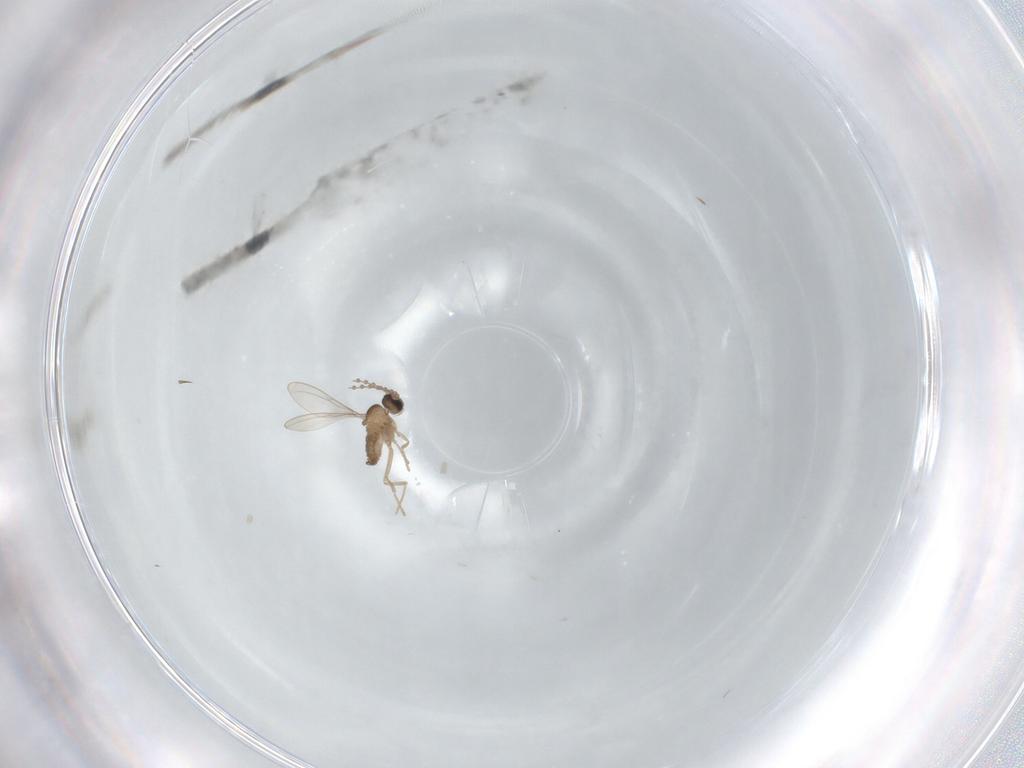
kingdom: Animalia
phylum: Arthropoda
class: Insecta
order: Diptera
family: Cecidomyiidae
